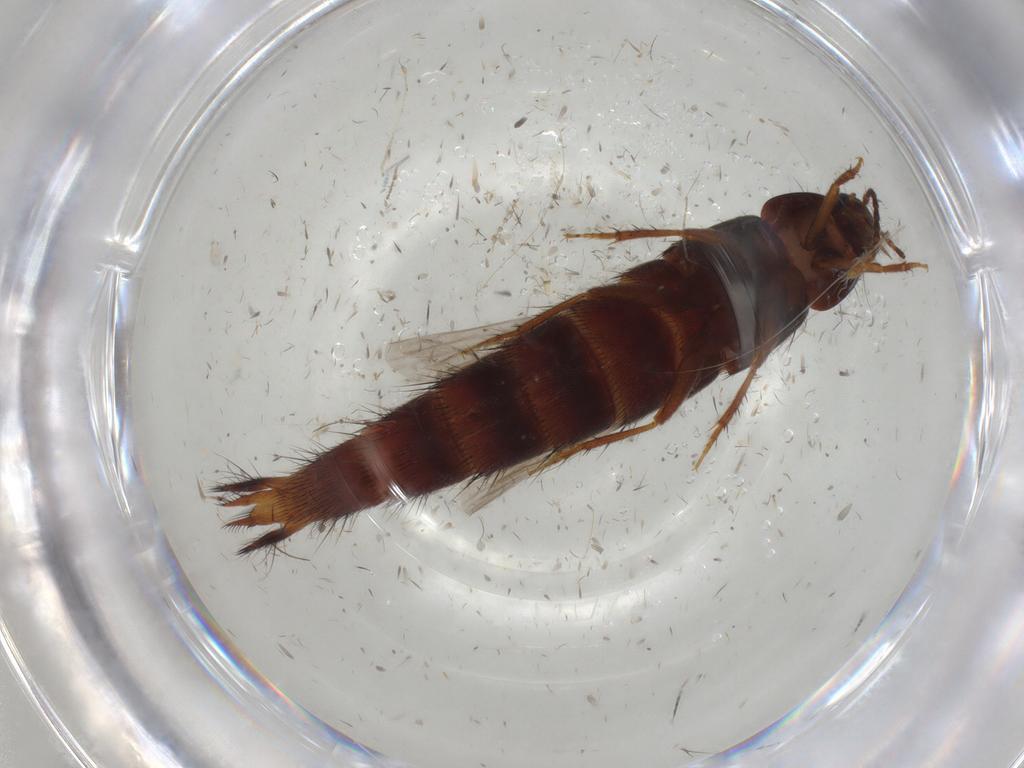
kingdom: Animalia
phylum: Arthropoda
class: Insecta
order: Coleoptera
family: Staphylinidae
